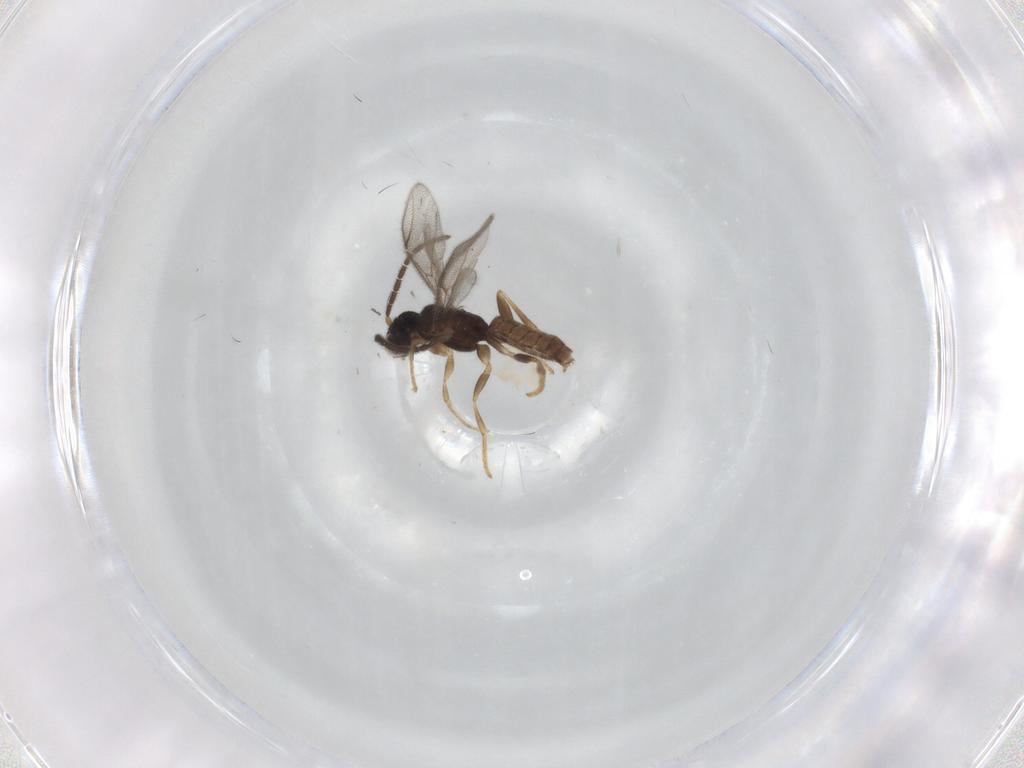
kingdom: Animalia
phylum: Arthropoda
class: Insecta
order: Hymenoptera
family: Dryinidae
